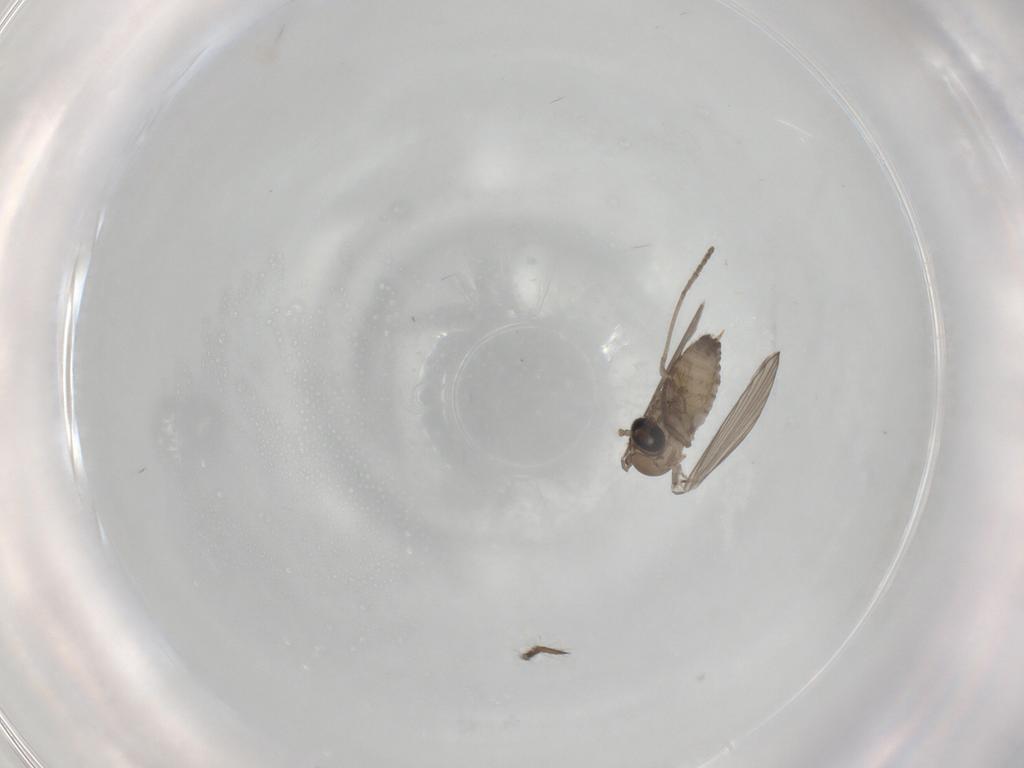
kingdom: Animalia
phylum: Arthropoda
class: Insecta
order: Diptera
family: Psychodidae
